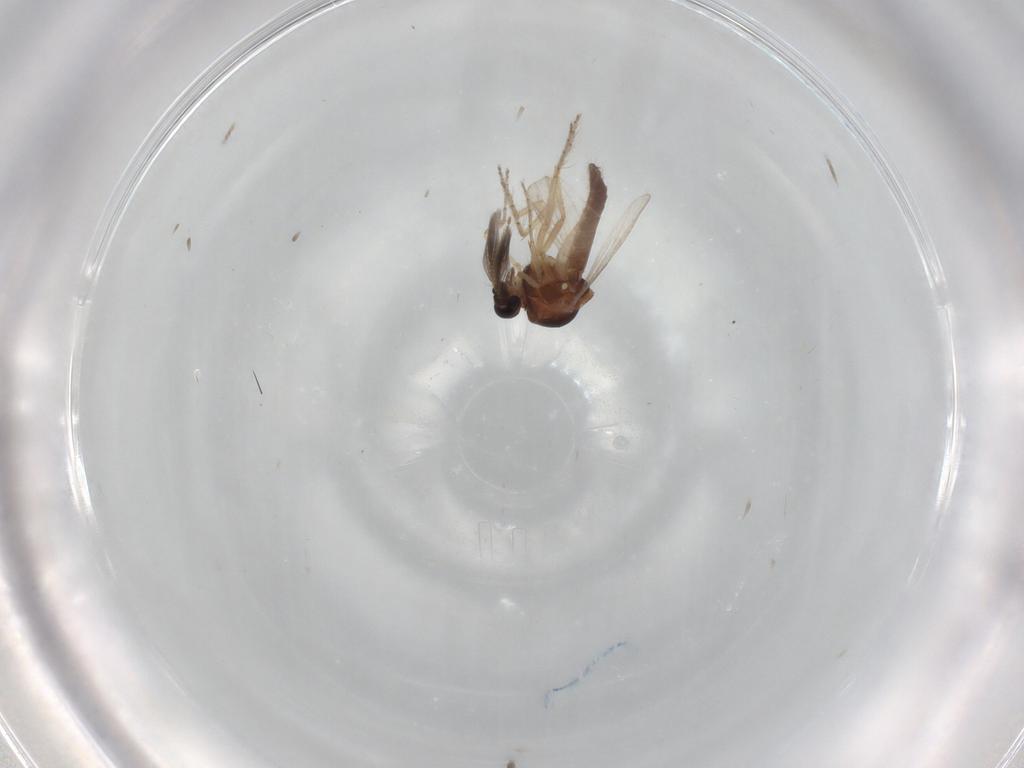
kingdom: Animalia
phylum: Arthropoda
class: Insecta
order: Diptera
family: Ceratopogonidae
